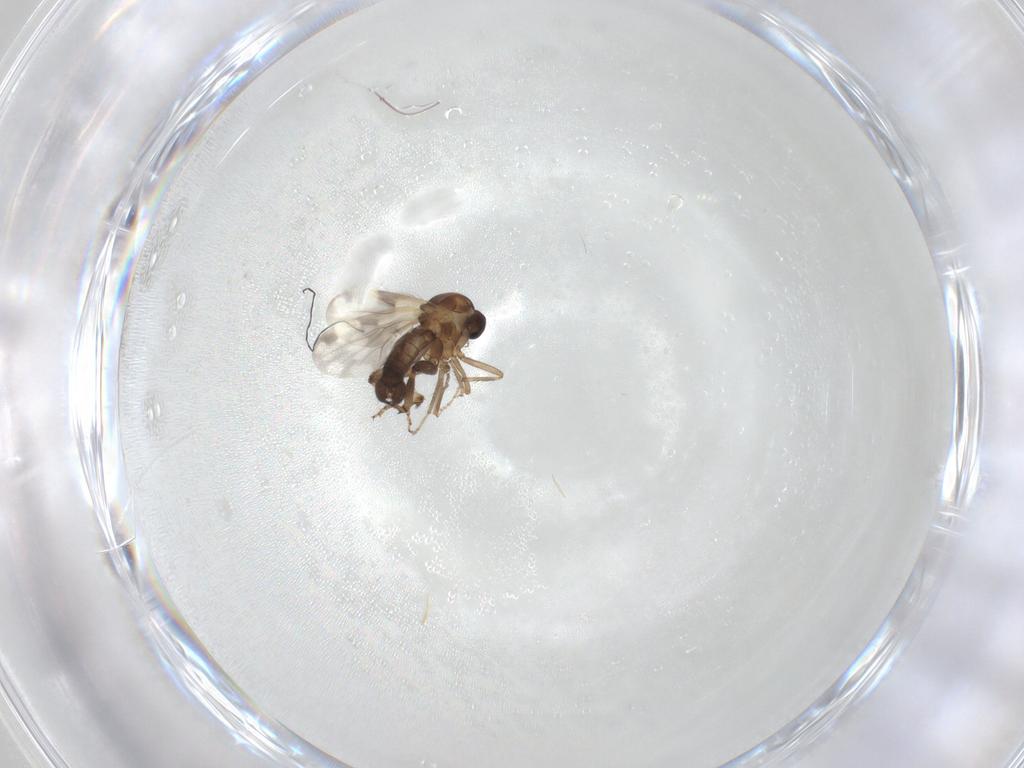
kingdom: Animalia
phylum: Arthropoda
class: Insecta
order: Diptera
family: Ceratopogonidae
